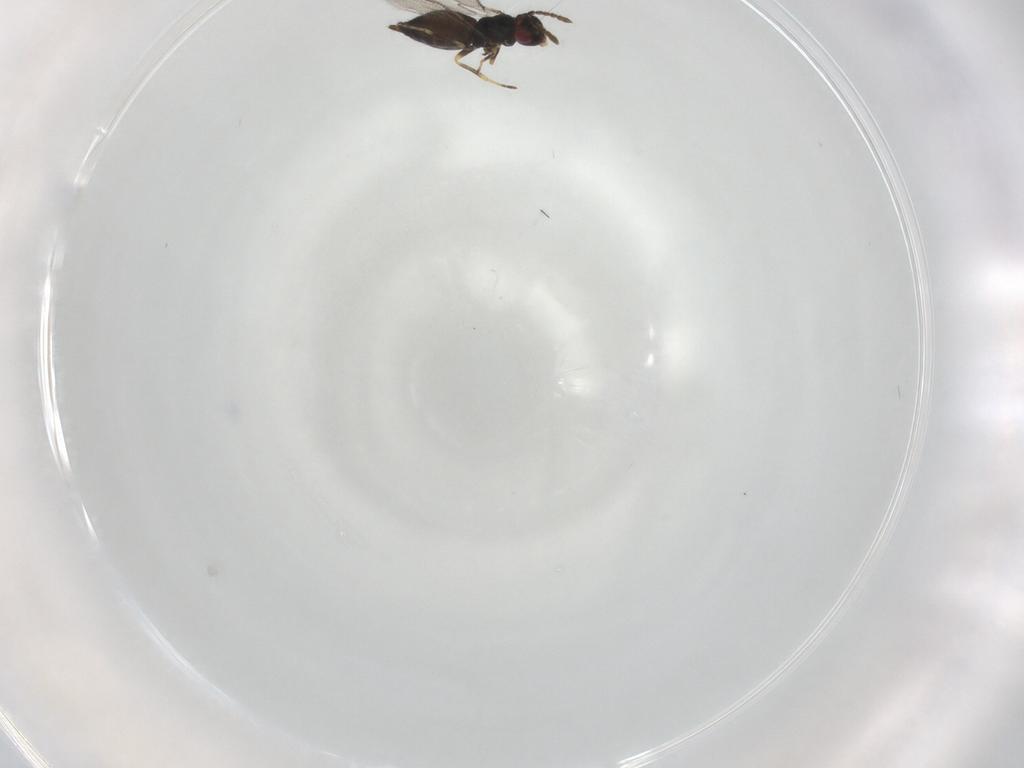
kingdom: Animalia
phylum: Arthropoda
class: Insecta
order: Hymenoptera
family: Eulophidae
